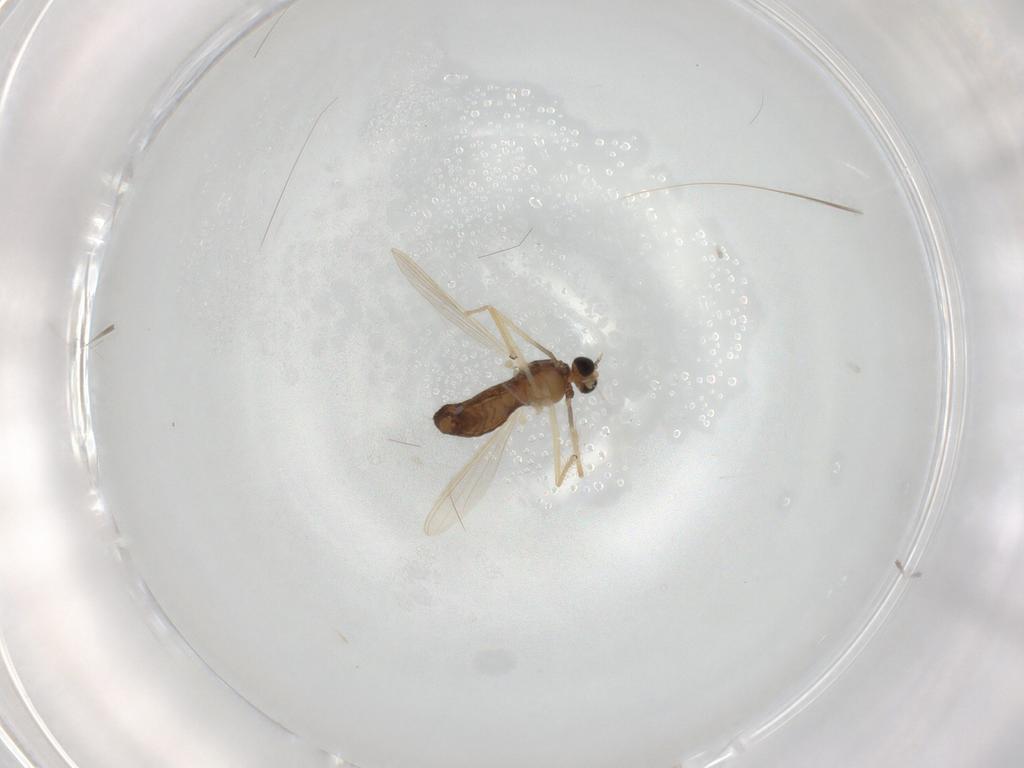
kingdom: Animalia
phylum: Arthropoda
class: Insecta
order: Diptera
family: Chironomidae
